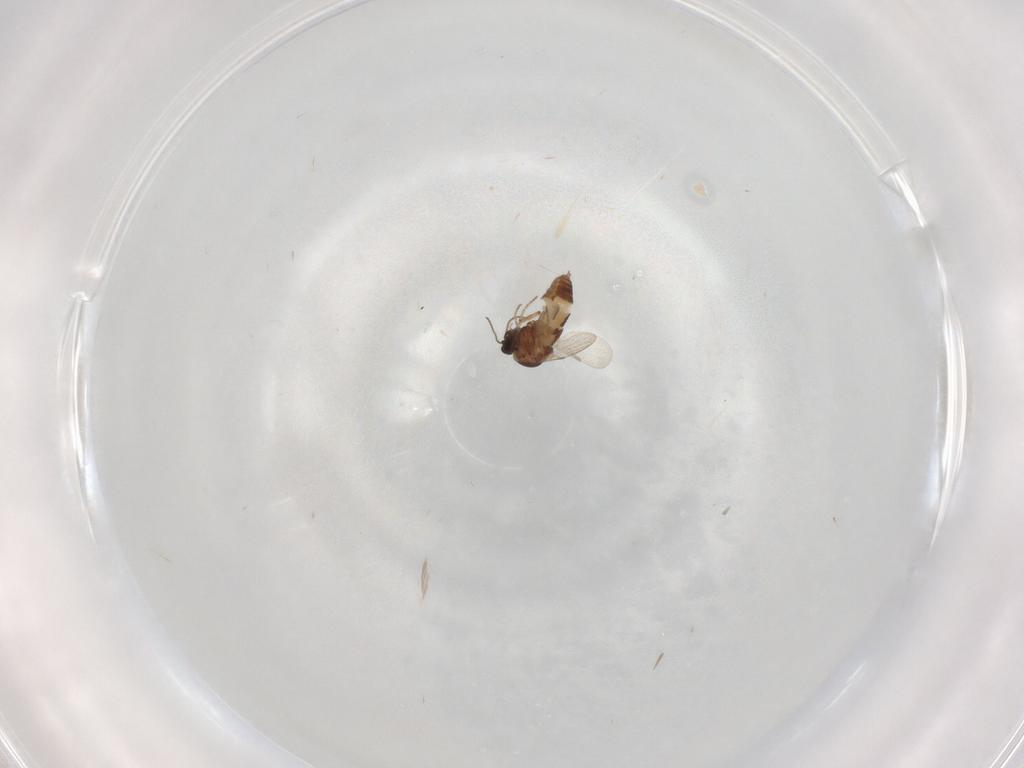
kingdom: Animalia
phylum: Arthropoda
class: Insecta
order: Diptera
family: Ceratopogonidae
